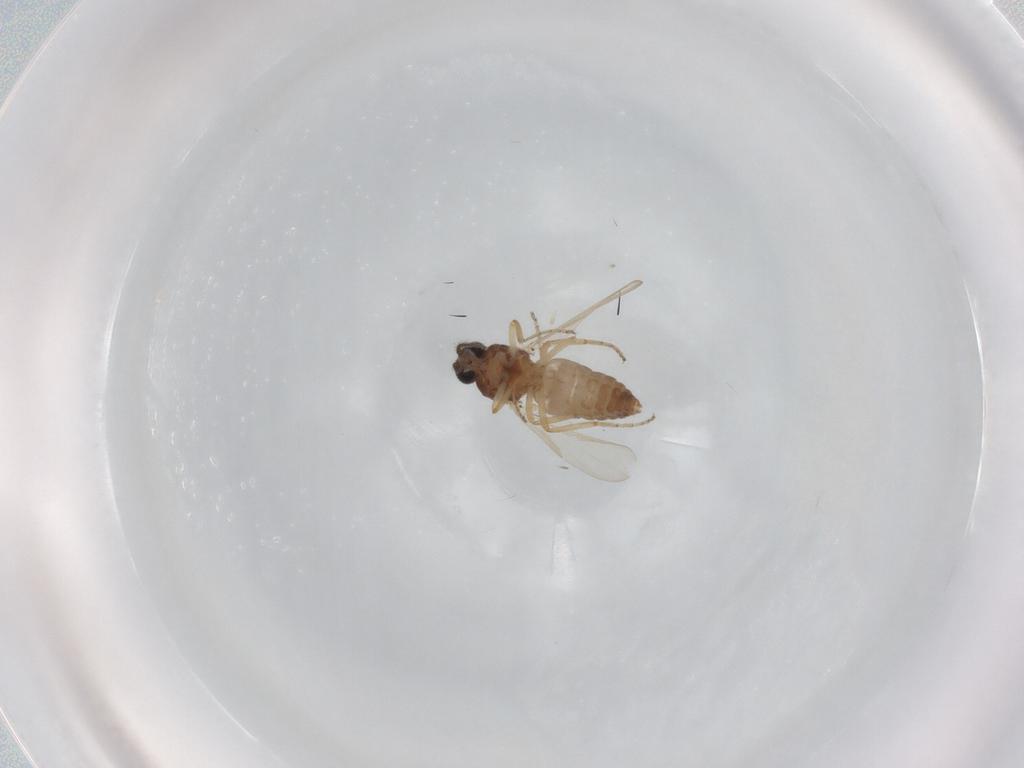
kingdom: Animalia
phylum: Arthropoda
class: Insecta
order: Diptera
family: Ceratopogonidae
